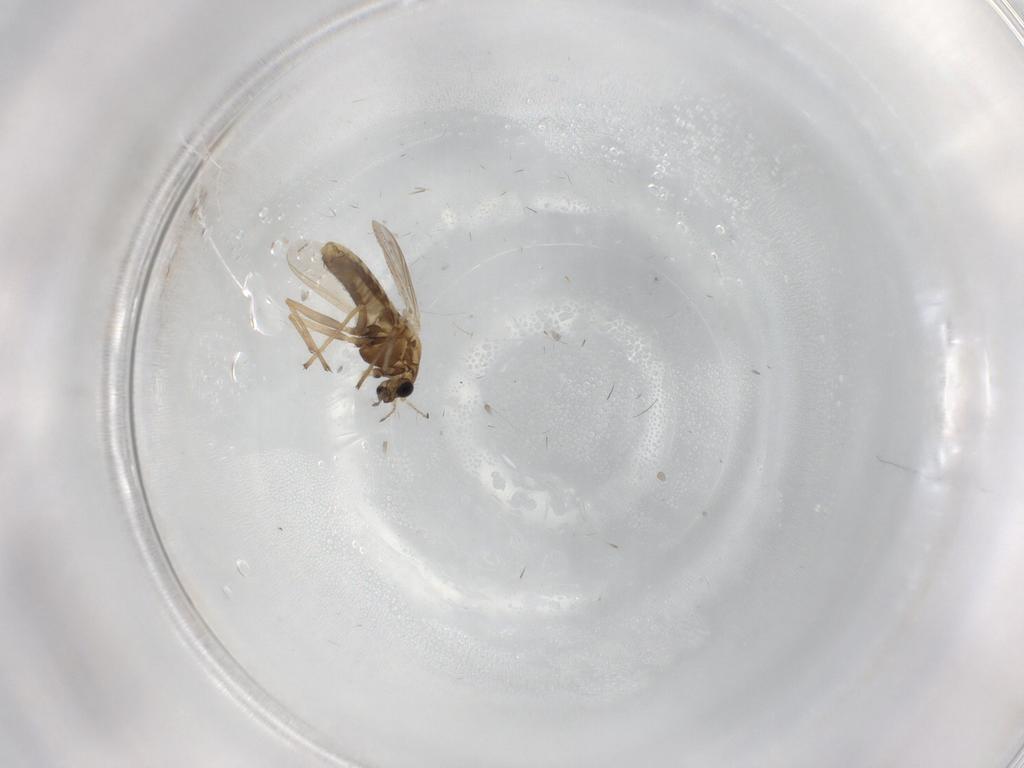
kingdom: Animalia
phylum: Arthropoda
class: Insecta
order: Diptera
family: Chironomidae
